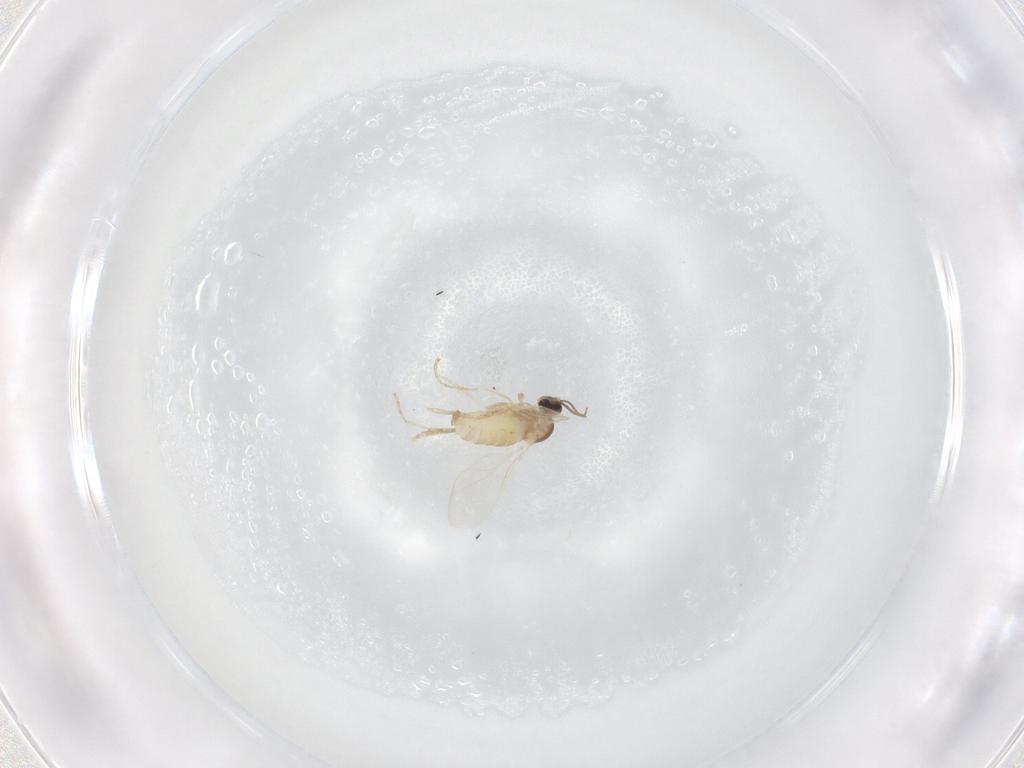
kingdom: Animalia
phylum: Arthropoda
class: Insecta
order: Diptera
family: Cecidomyiidae
